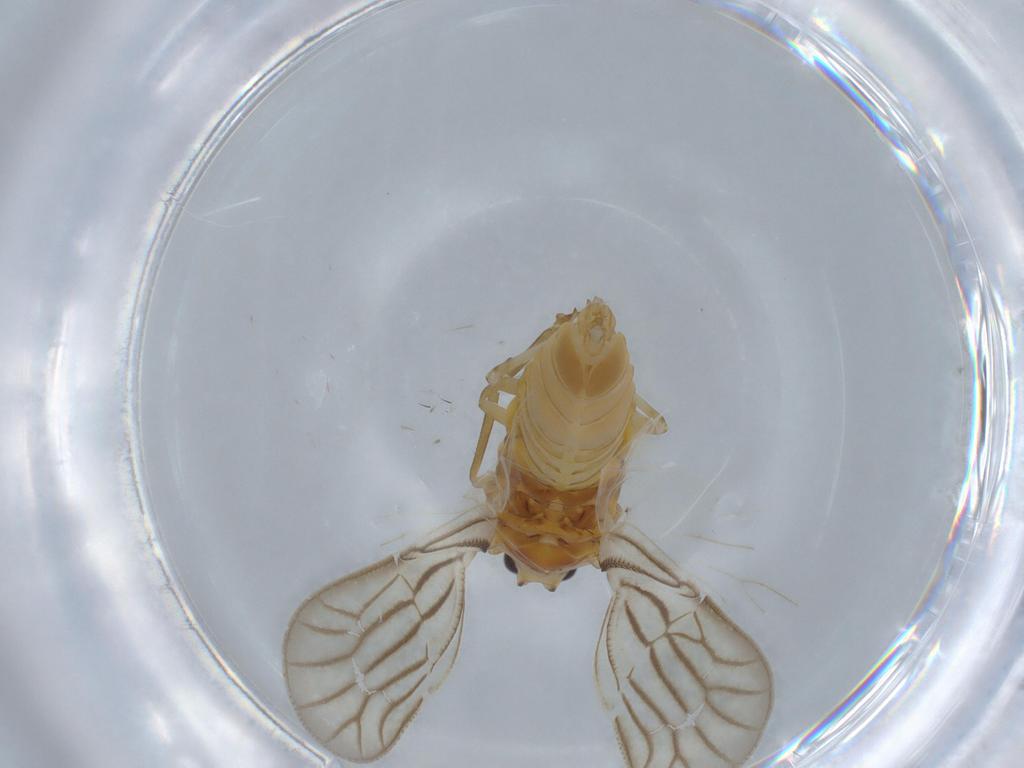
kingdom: Animalia
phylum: Arthropoda
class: Insecta
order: Hemiptera
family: Meenoplidae
